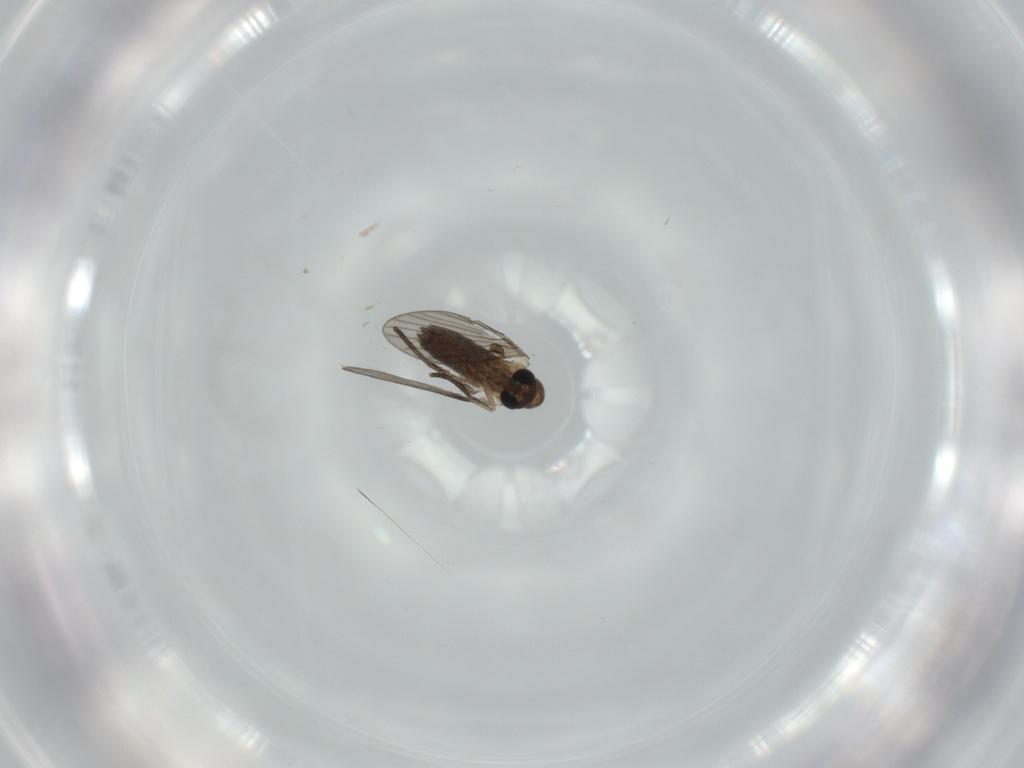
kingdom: Animalia
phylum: Arthropoda
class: Insecta
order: Diptera
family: Psychodidae
